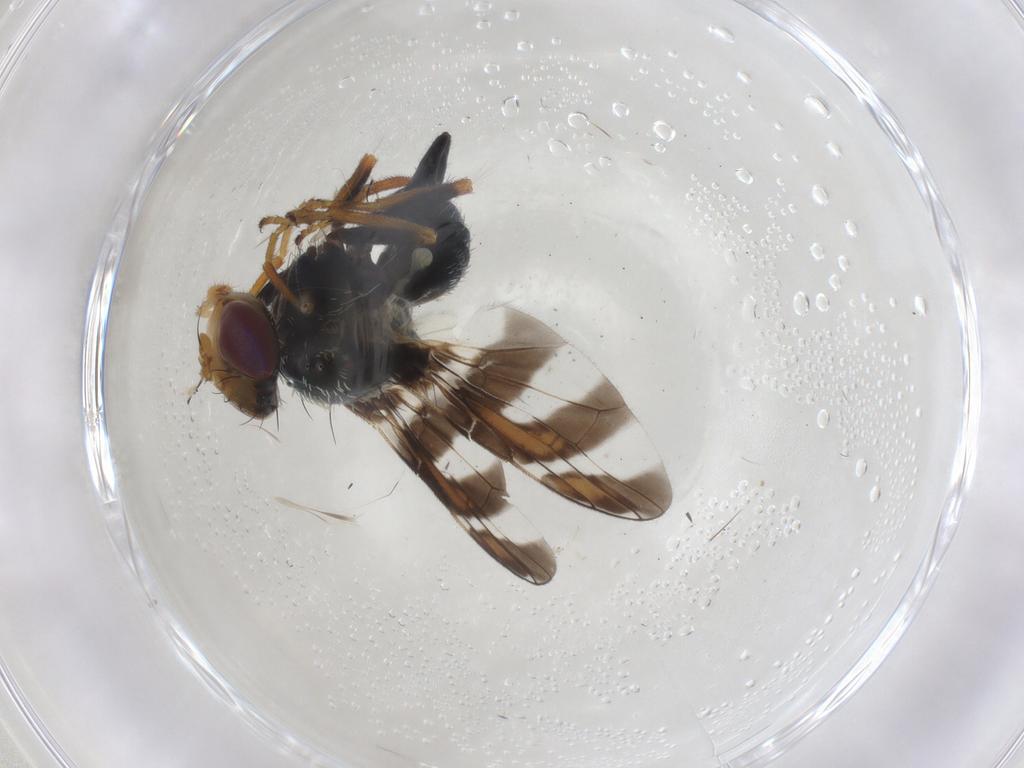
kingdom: Animalia
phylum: Arthropoda
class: Insecta
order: Diptera
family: Tephritidae
